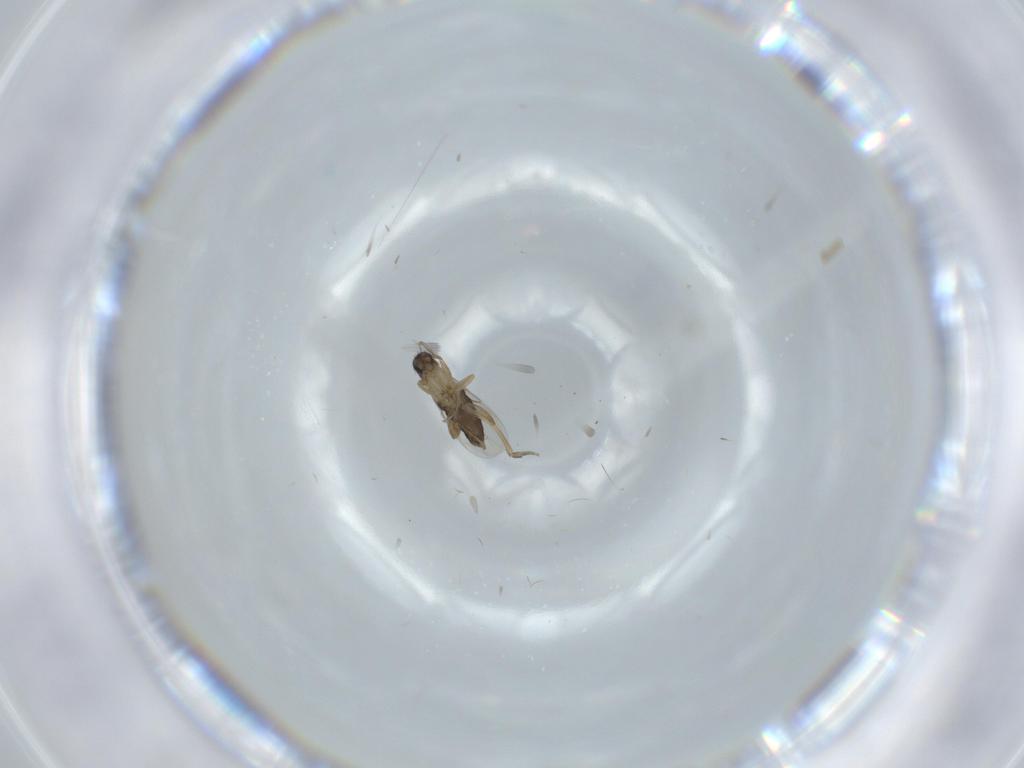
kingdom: Animalia
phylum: Arthropoda
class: Insecta
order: Diptera
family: Phoridae
